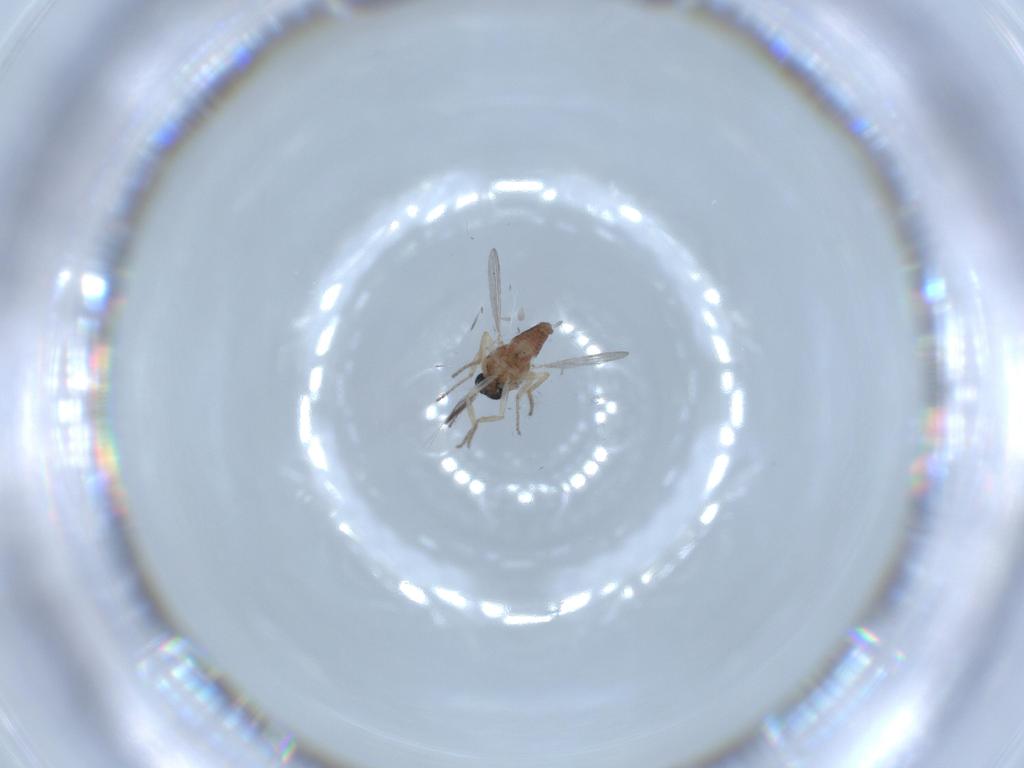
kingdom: Animalia
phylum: Arthropoda
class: Insecta
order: Diptera
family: Ceratopogonidae
